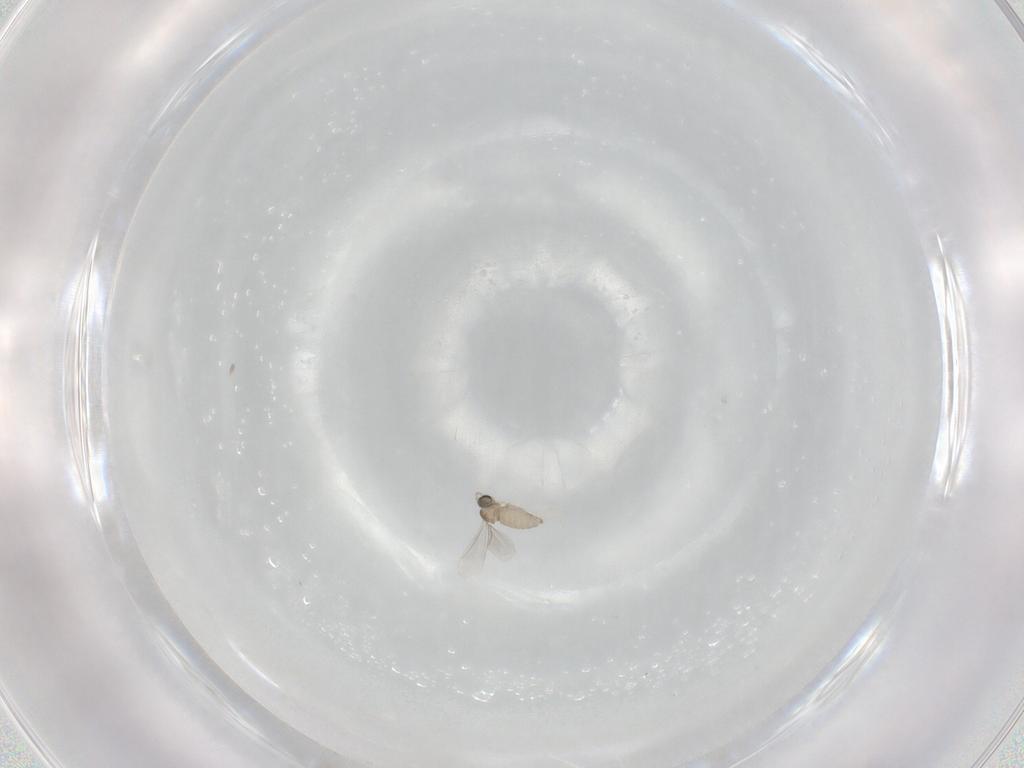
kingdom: Animalia
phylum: Arthropoda
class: Insecta
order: Diptera
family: Cecidomyiidae
